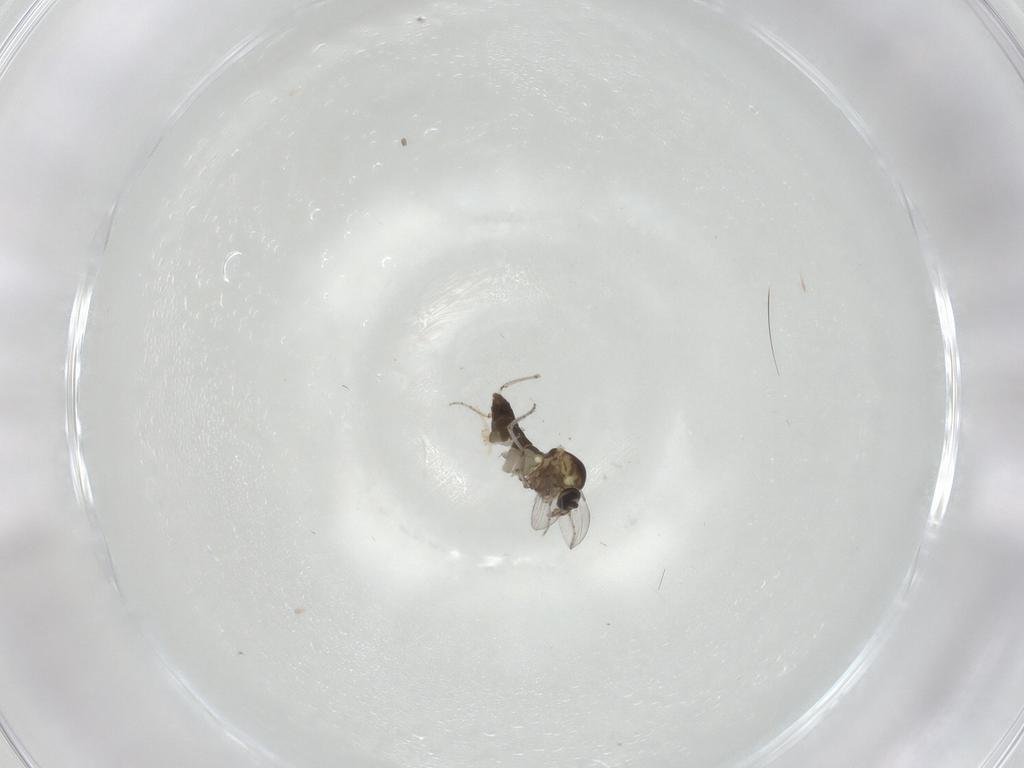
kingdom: Animalia
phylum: Arthropoda
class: Insecta
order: Diptera
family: Ceratopogonidae
